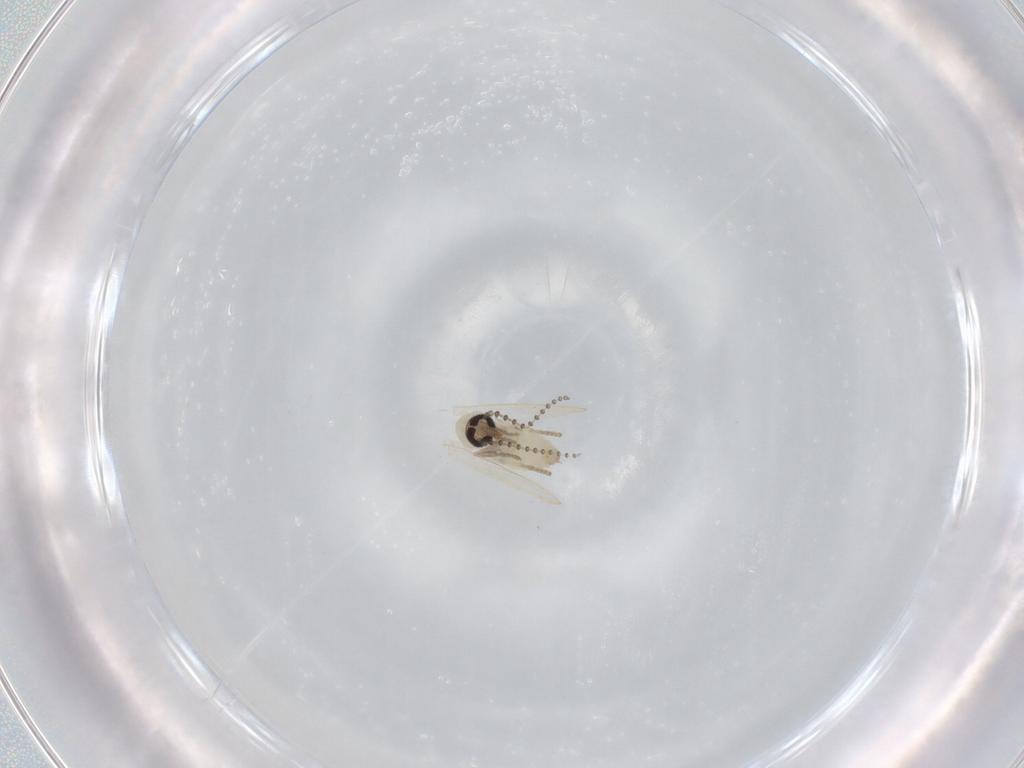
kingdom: Animalia
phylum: Arthropoda
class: Insecta
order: Diptera
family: Psychodidae
